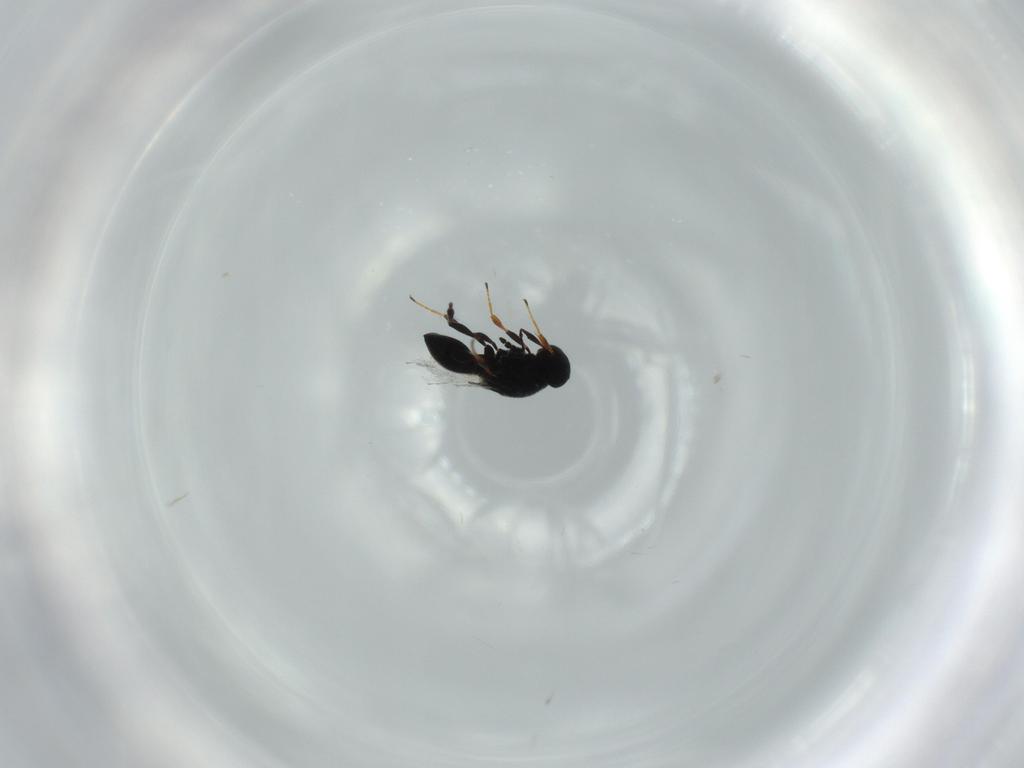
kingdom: Animalia
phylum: Arthropoda
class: Insecta
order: Hymenoptera
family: Platygastridae
